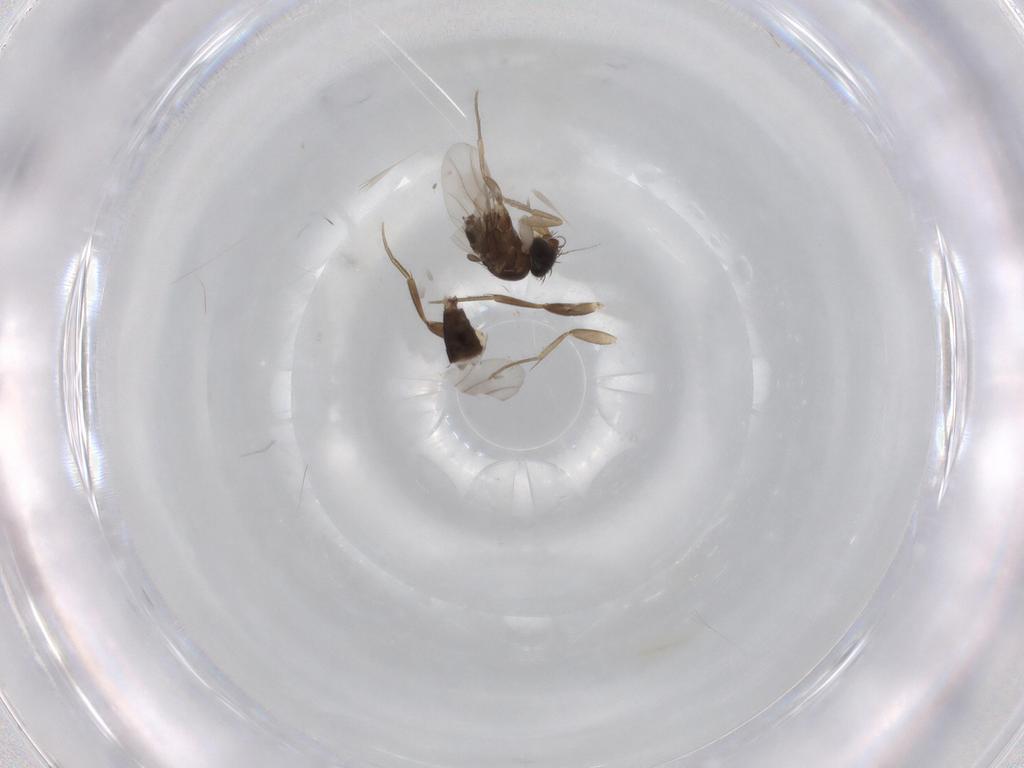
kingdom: Animalia
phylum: Arthropoda
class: Insecta
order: Diptera
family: Phoridae
